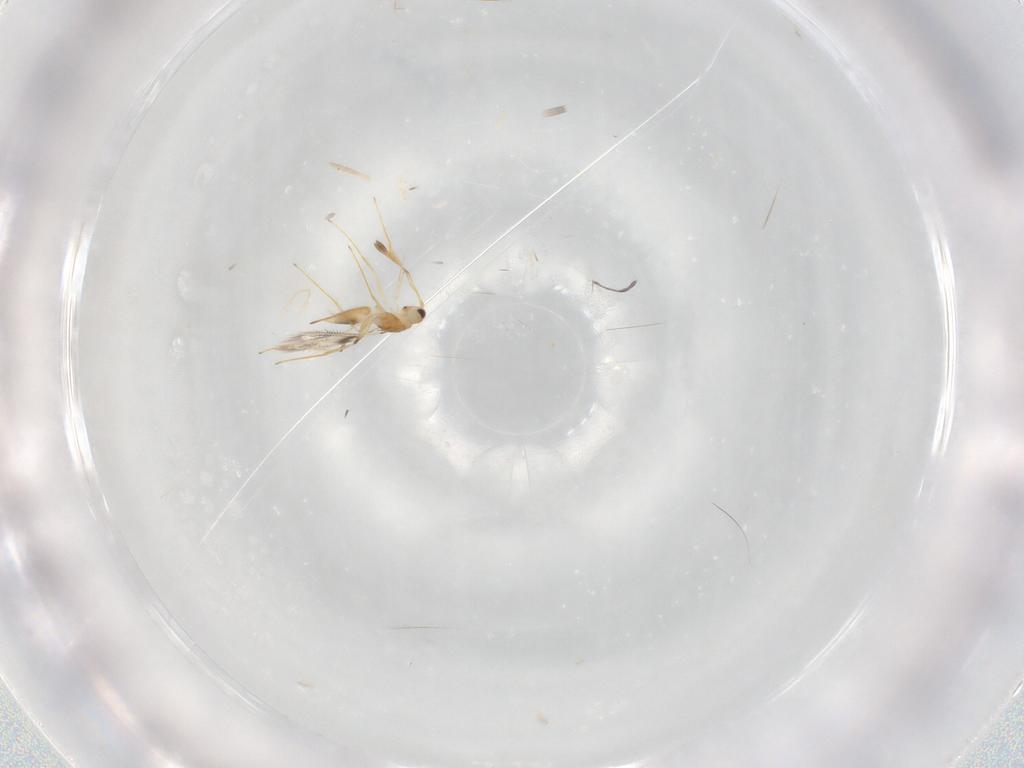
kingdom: Animalia
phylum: Arthropoda
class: Insecta
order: Hymenoptera
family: Mymaridae
